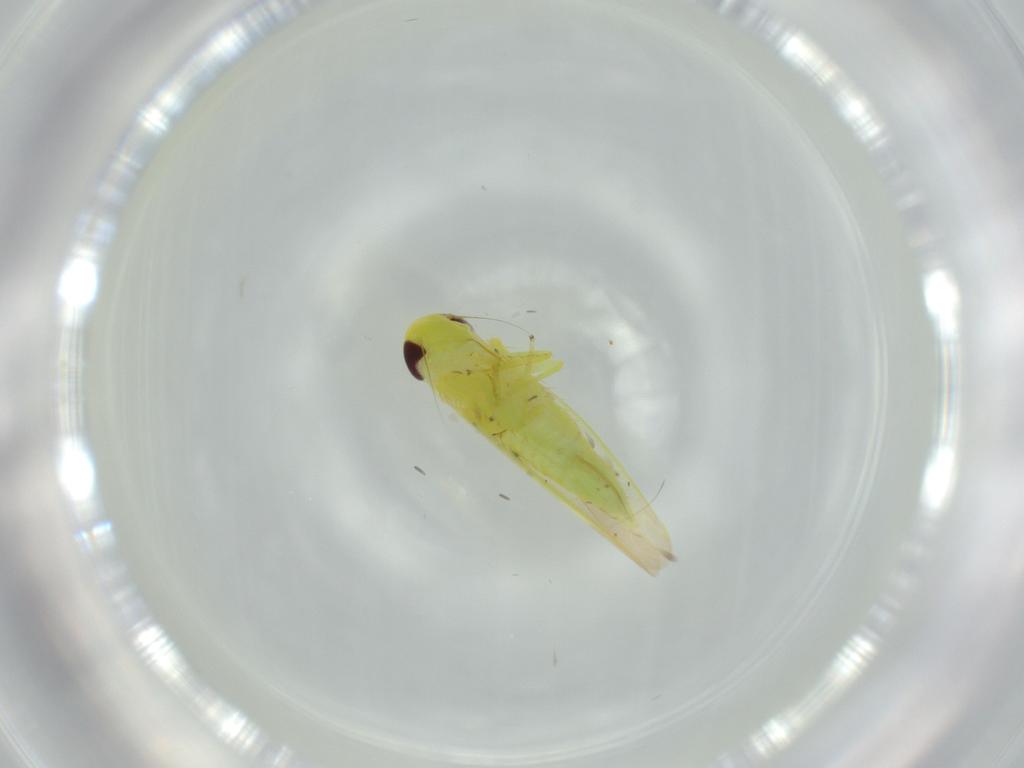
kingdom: Animalia
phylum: Arthropoda
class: Insecta
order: Hemiptera
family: Cicadellidae
